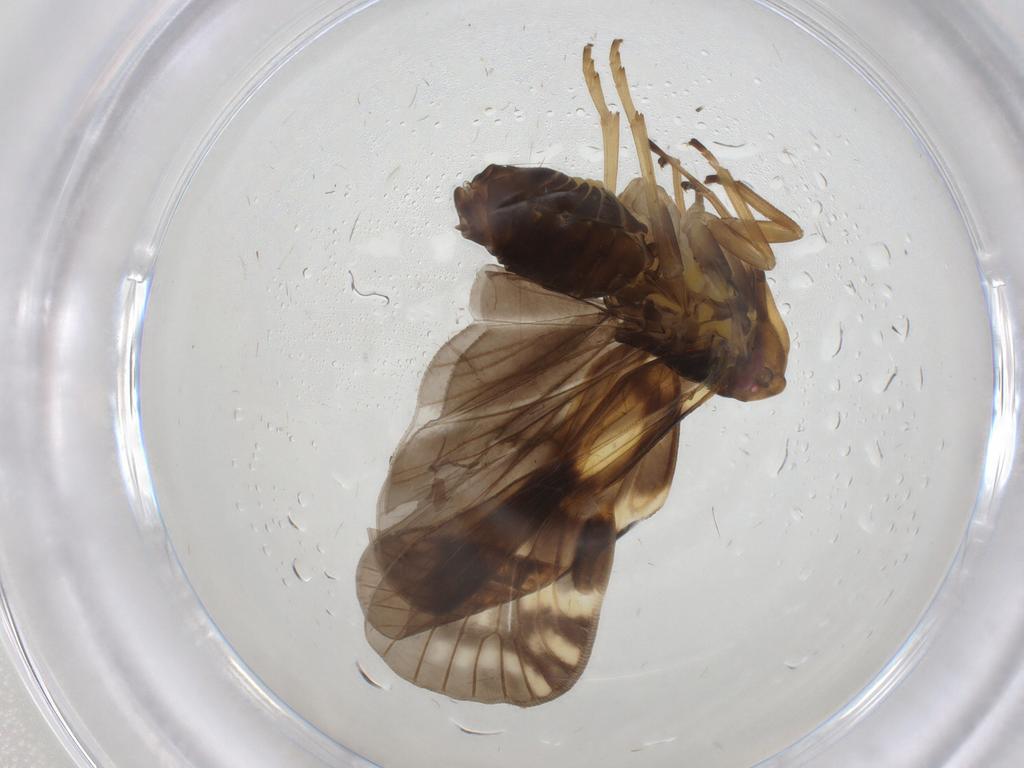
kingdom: Animalia
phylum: Arthropoda
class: Insecta
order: Hemiptera
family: Cixiidae
